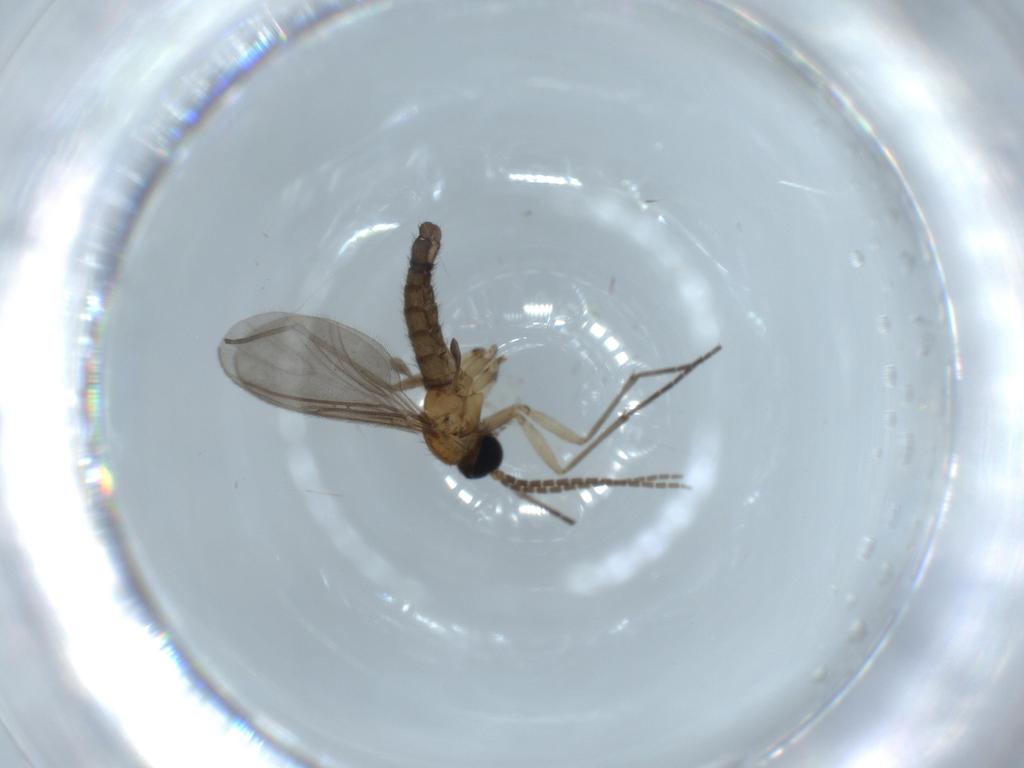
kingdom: Animalia
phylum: Arthropoda
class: Insecta
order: Diptera
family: Sciaridae
